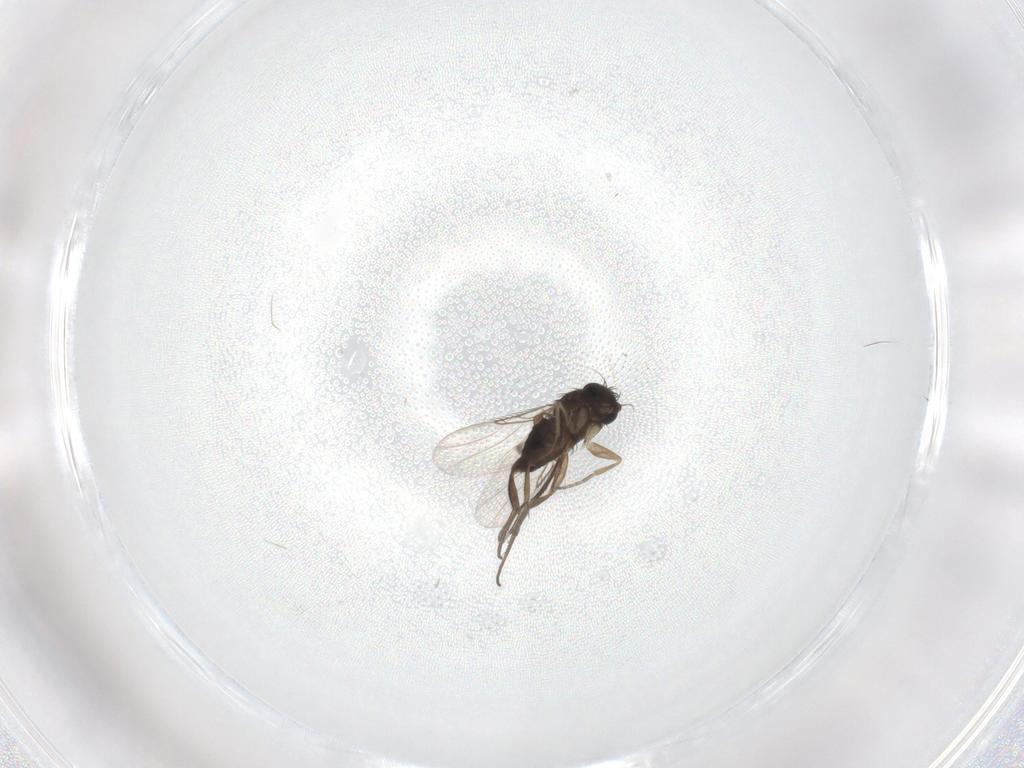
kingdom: Animalia
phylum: Arthropoda
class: Insecta
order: Diptera
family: Phoridae
